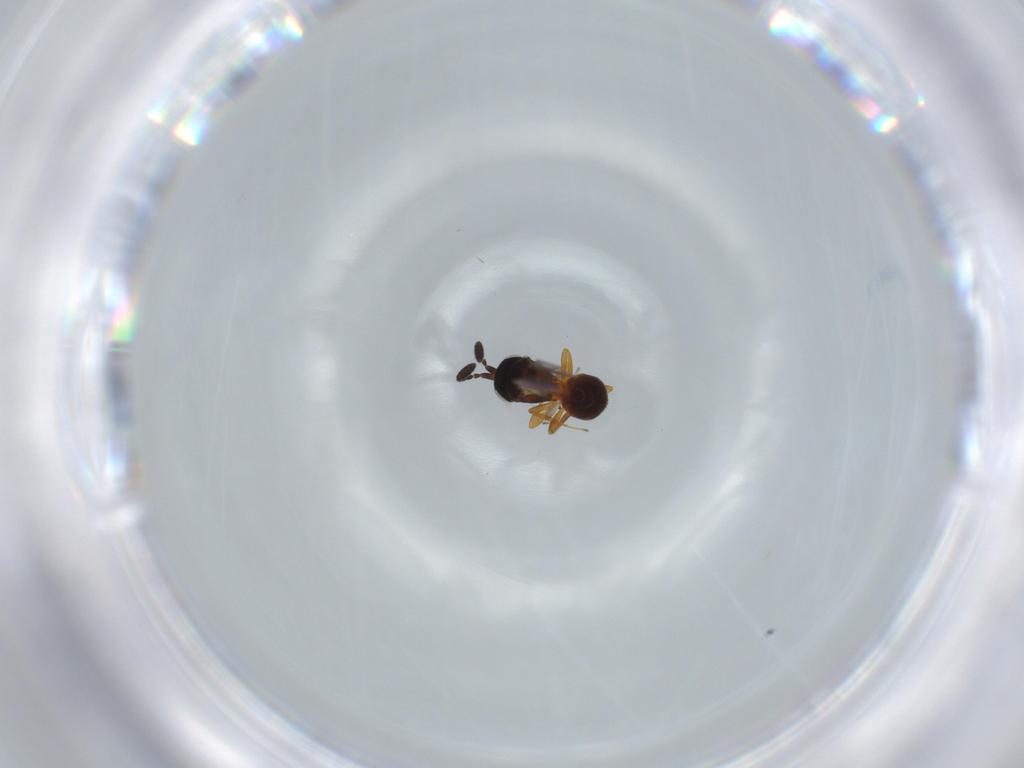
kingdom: Animalia
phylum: Arthropoda
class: Insecta
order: Hymenoptera
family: Scelionidae
